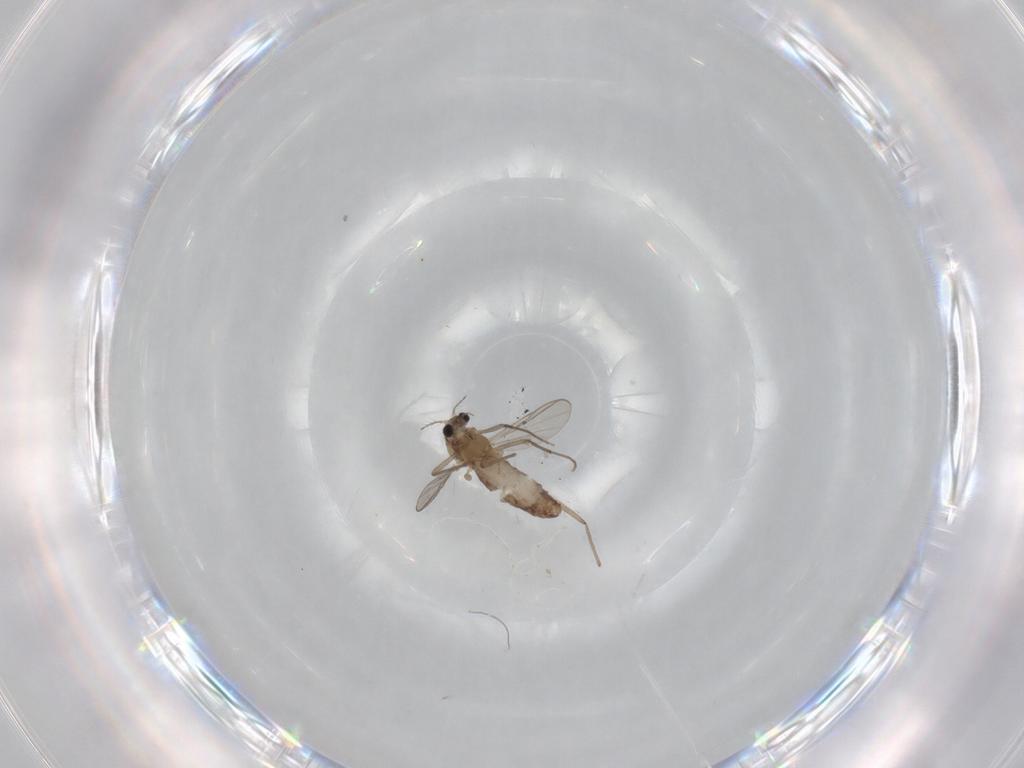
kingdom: Animalia
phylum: Arthropoda
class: Insecta
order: Diptera
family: Chironomidae
